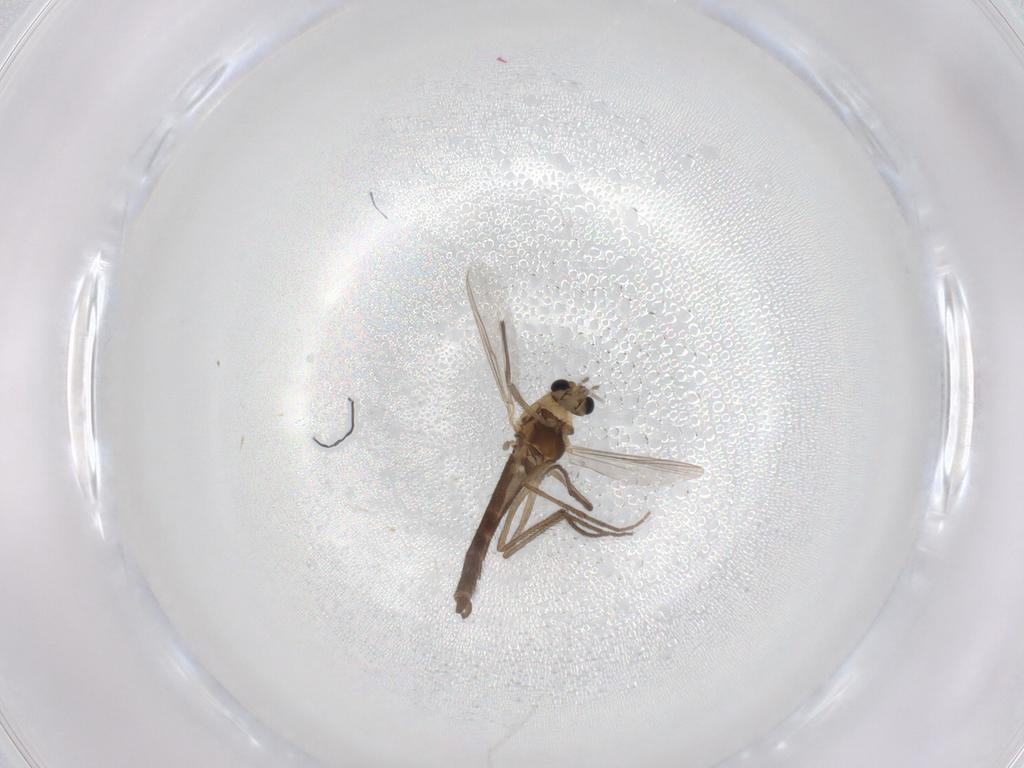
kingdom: Animalia
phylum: Arthropoda
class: Insecta
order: Diptera
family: Chironomidae
